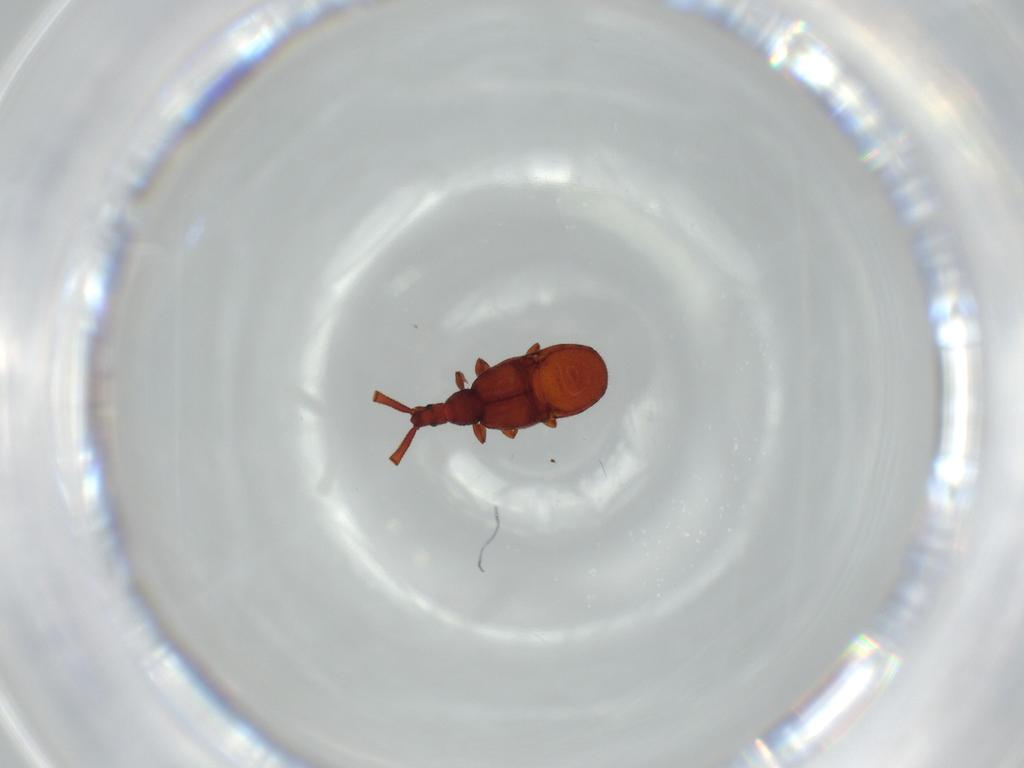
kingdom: Animalia
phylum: Arthropoda
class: Insecta
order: Coleoptera
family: Staphylinidae
